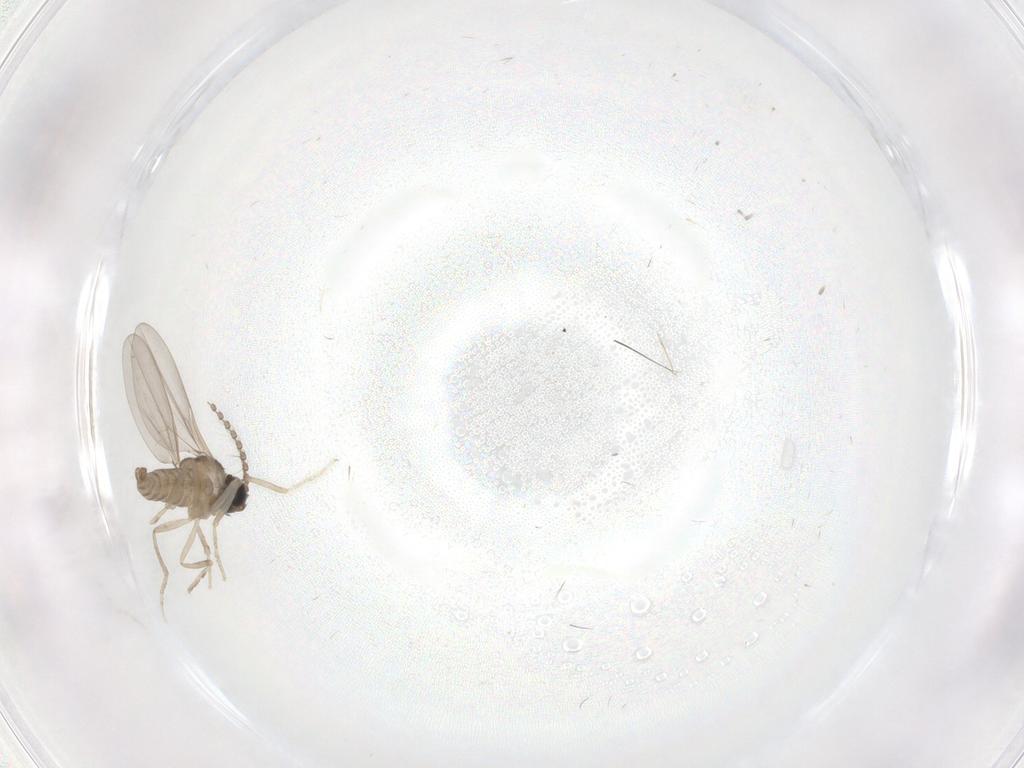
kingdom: Animalia
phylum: Arthropoda
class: Insecta
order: Diptera
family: Cecidomyiidae
